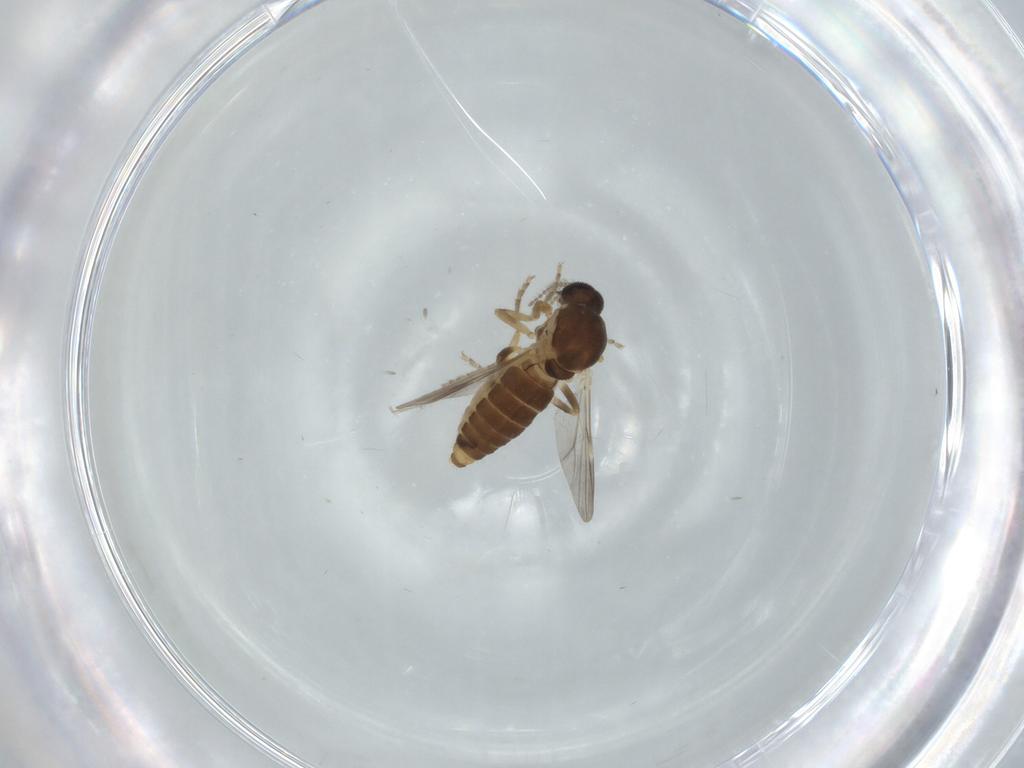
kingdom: Animalia
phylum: Arthropoda
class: Insecta
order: Diptera
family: Ceratopogonidae
